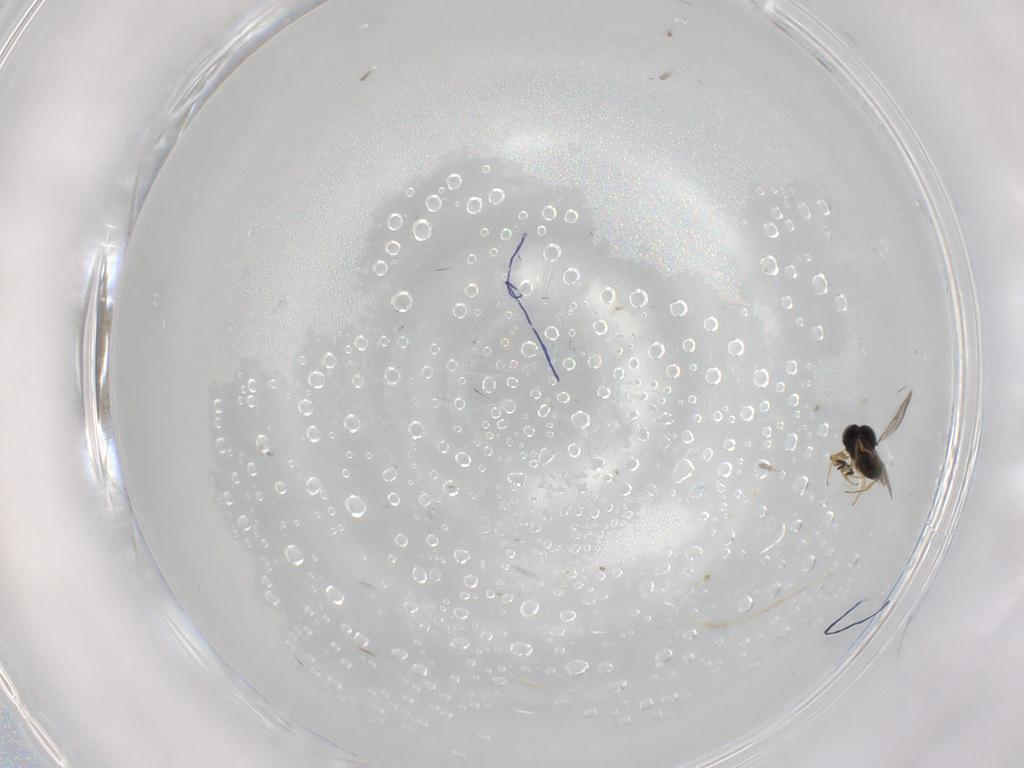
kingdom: Animalia
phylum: Arthropoda
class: Insecta
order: Hymenoptera
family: Scelionidae
